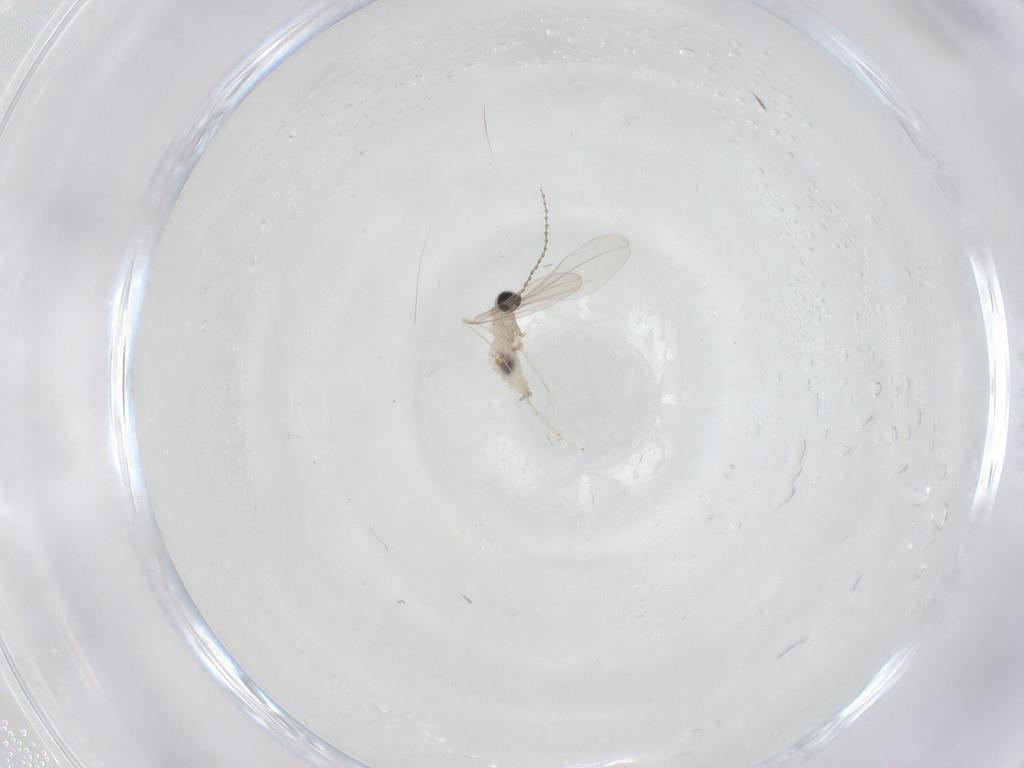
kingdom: Animalia
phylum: Arthropoda
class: Insecta
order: Diptera
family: Cecidomyiidae
